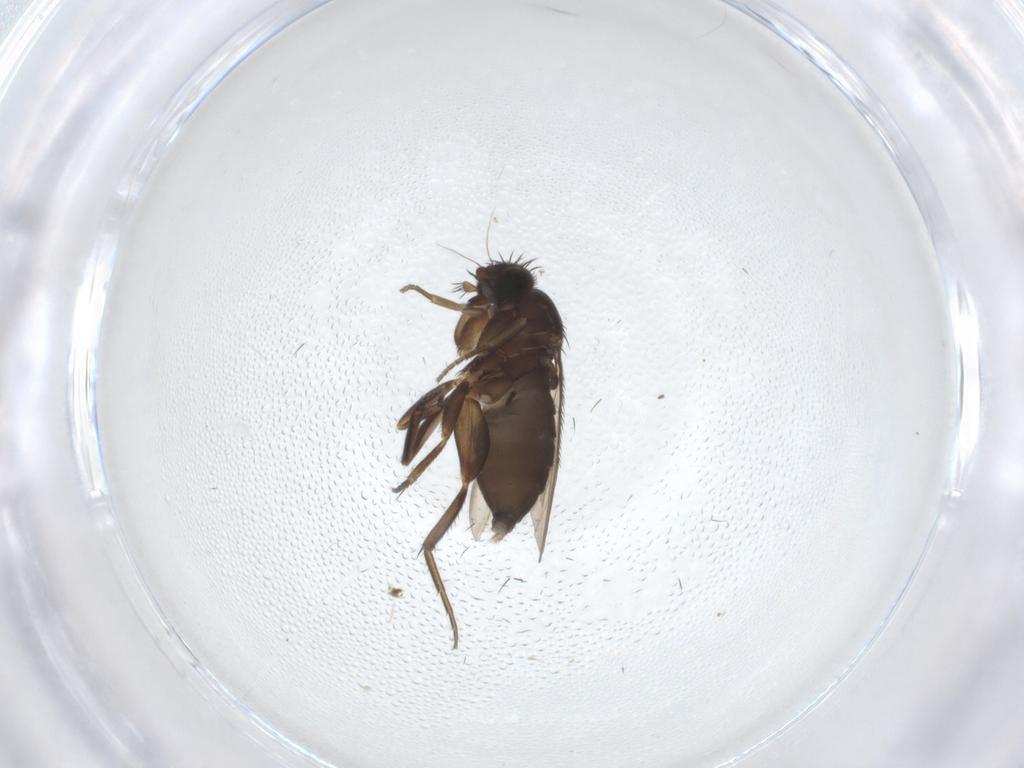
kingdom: Animalia
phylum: Arthropoda
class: Insecta
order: Diptera
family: Phoridae
